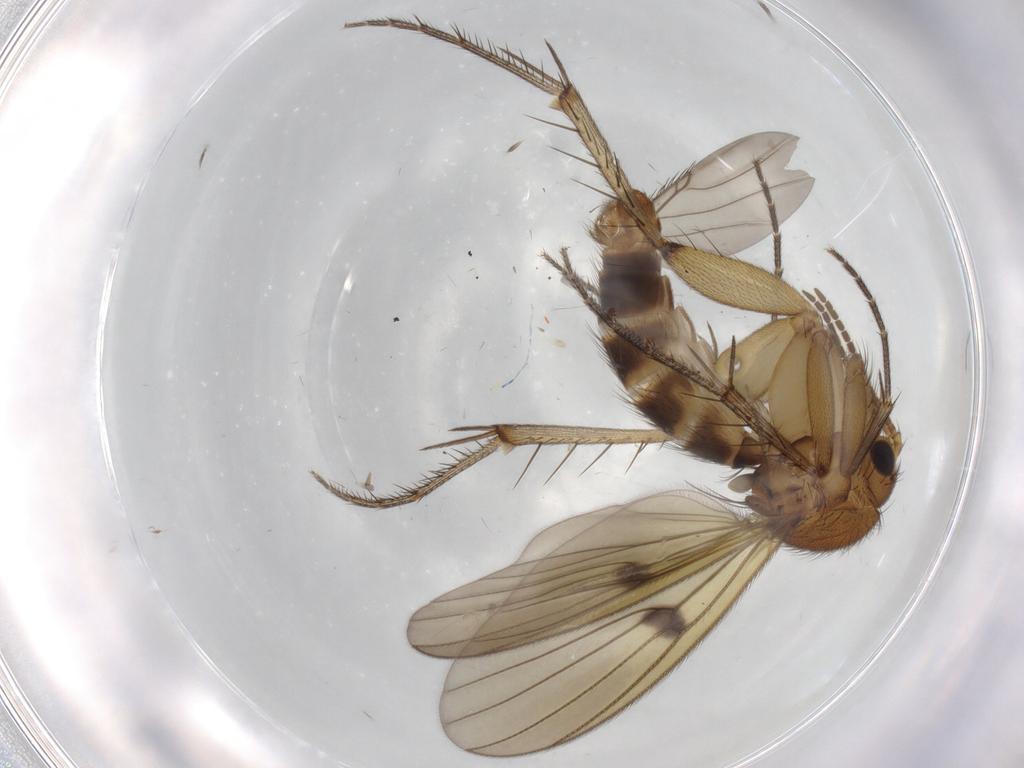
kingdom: Animalia
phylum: Arthropoda
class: Insecta
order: Diptera
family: Mycetophilidae
